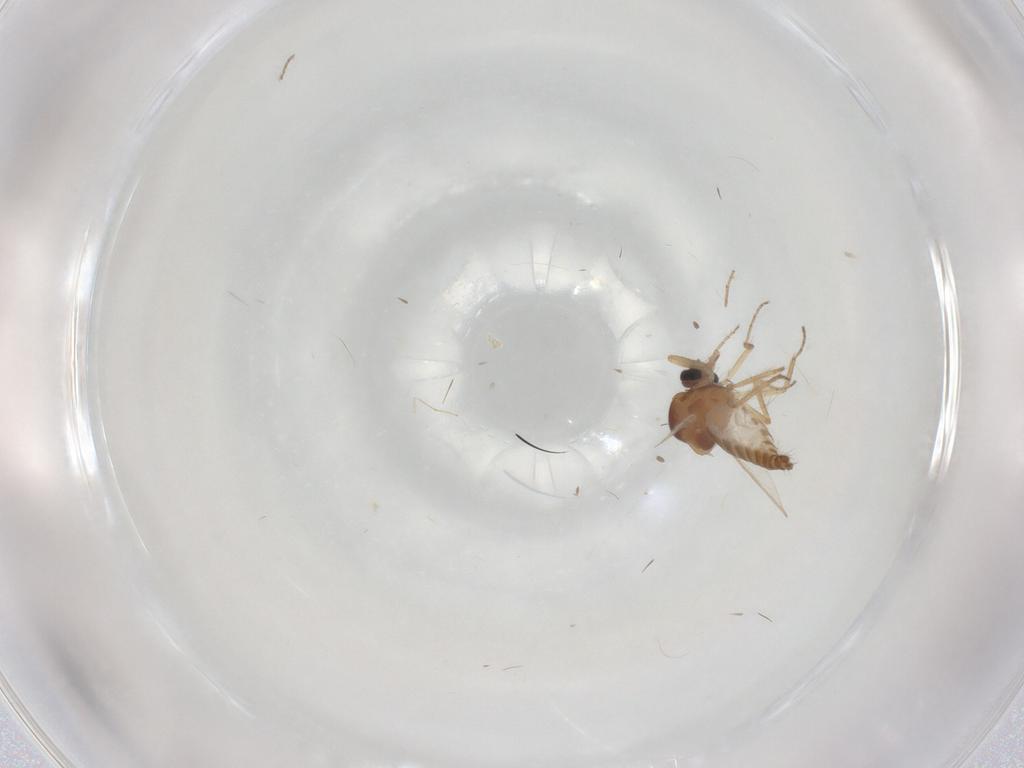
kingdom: Animalia
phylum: Arthropoda
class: Insecta
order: Diptera
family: Ceratopogonidae
